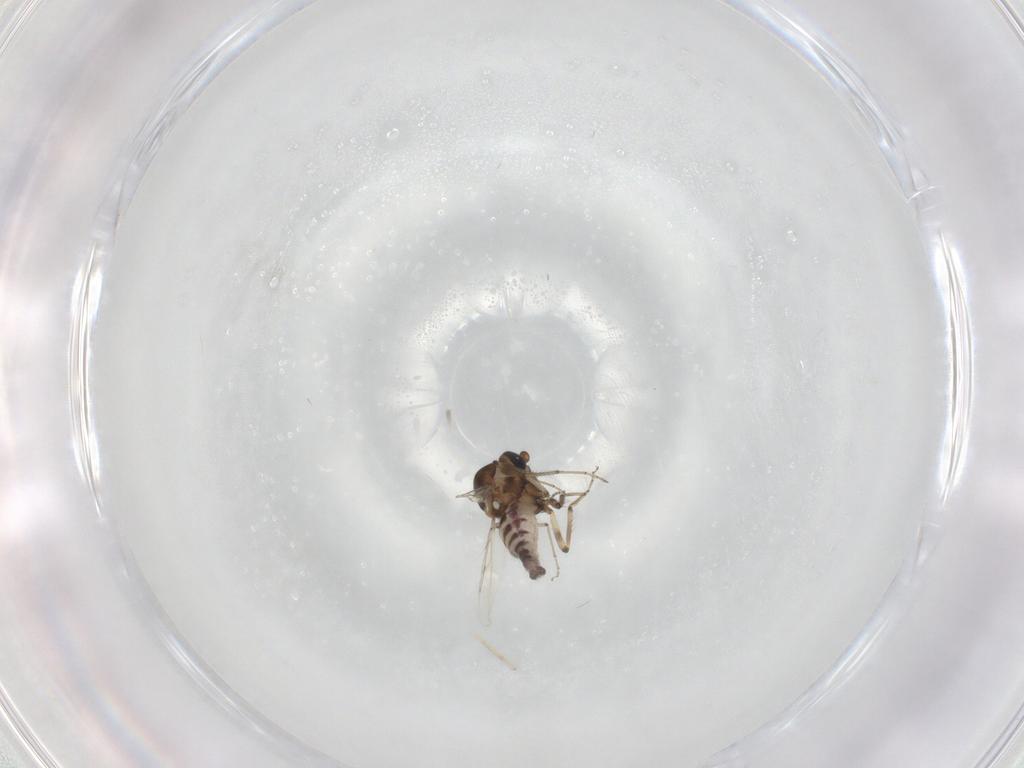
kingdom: Animalia
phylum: Arthropoda
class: Insecta
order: Diptera
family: Ceratopogonidae
